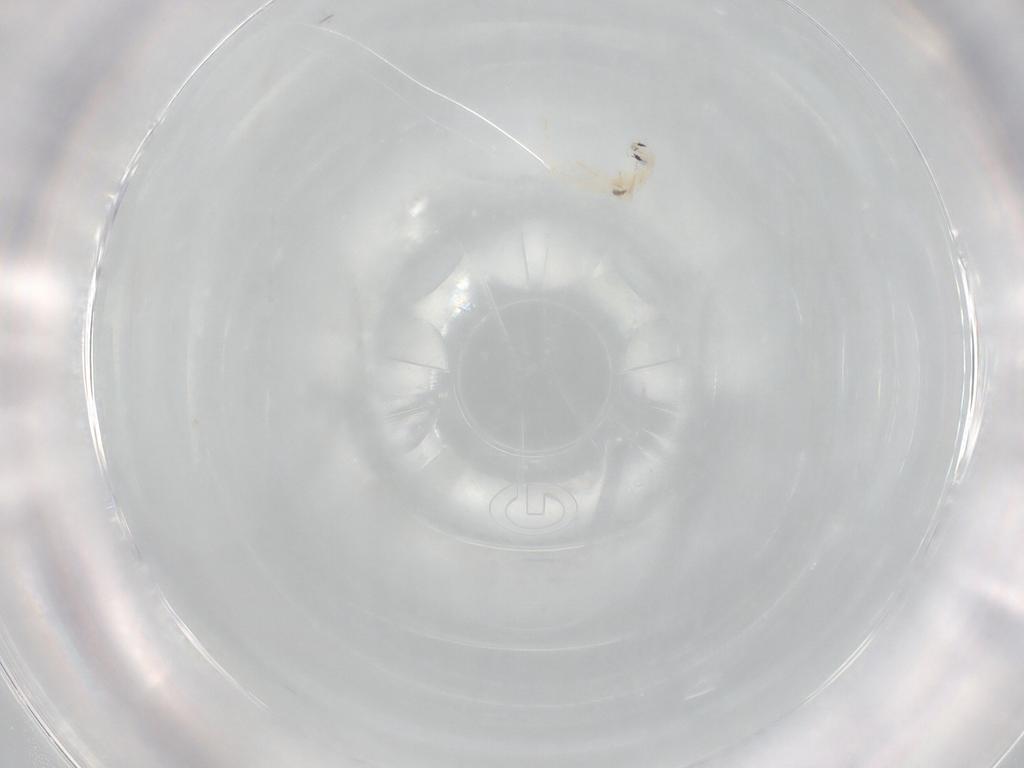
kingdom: Animalia
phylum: Arthropoda
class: Collembola
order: Entomobryomorpha
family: Entomobryidae
